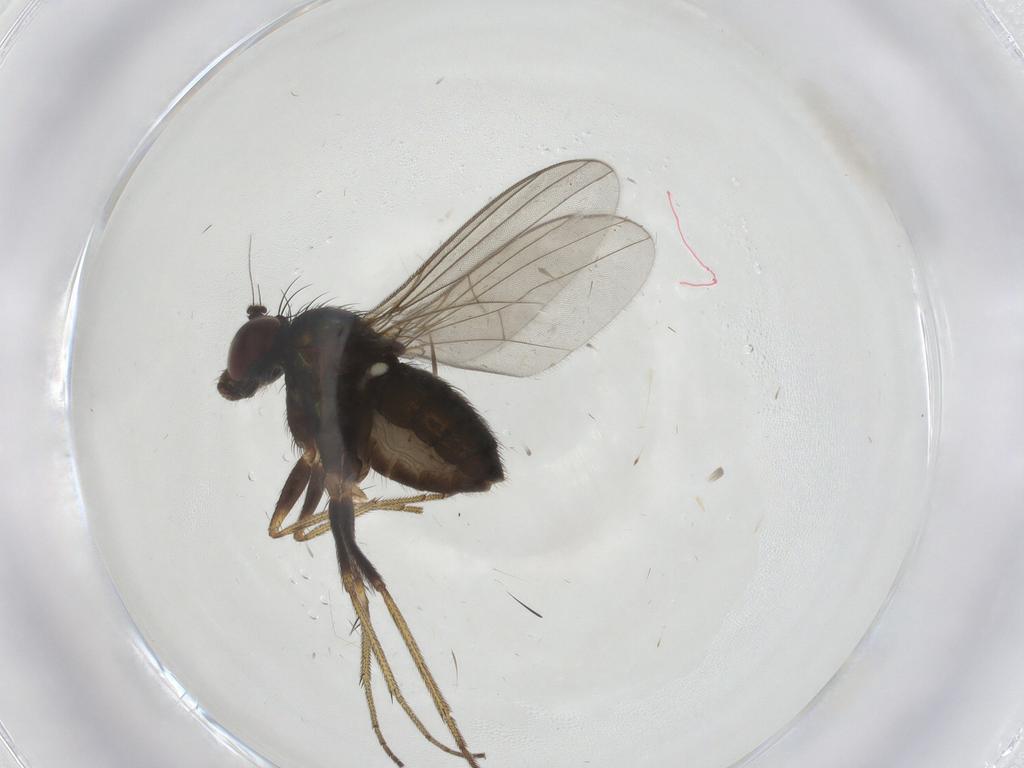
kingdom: Animalia
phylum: Arthropoda
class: Insecta
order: Diptera
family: Dolichopodidae
